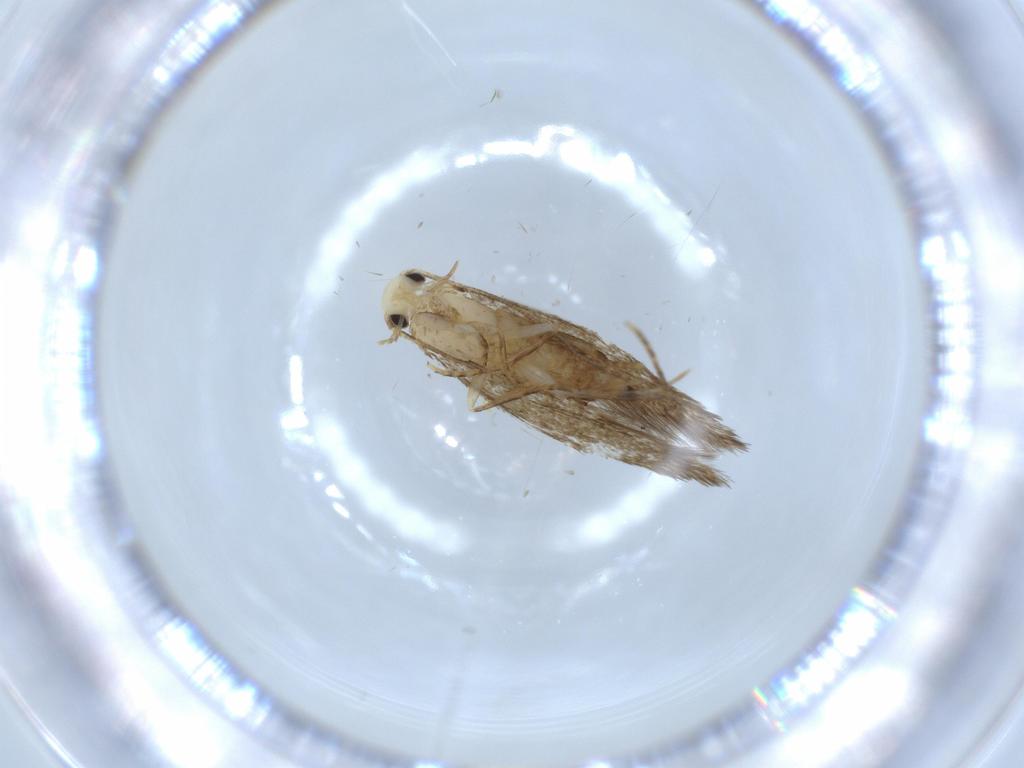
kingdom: Animalia
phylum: Arthropoda
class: Insecta
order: Lepidoptera
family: Tineidae
